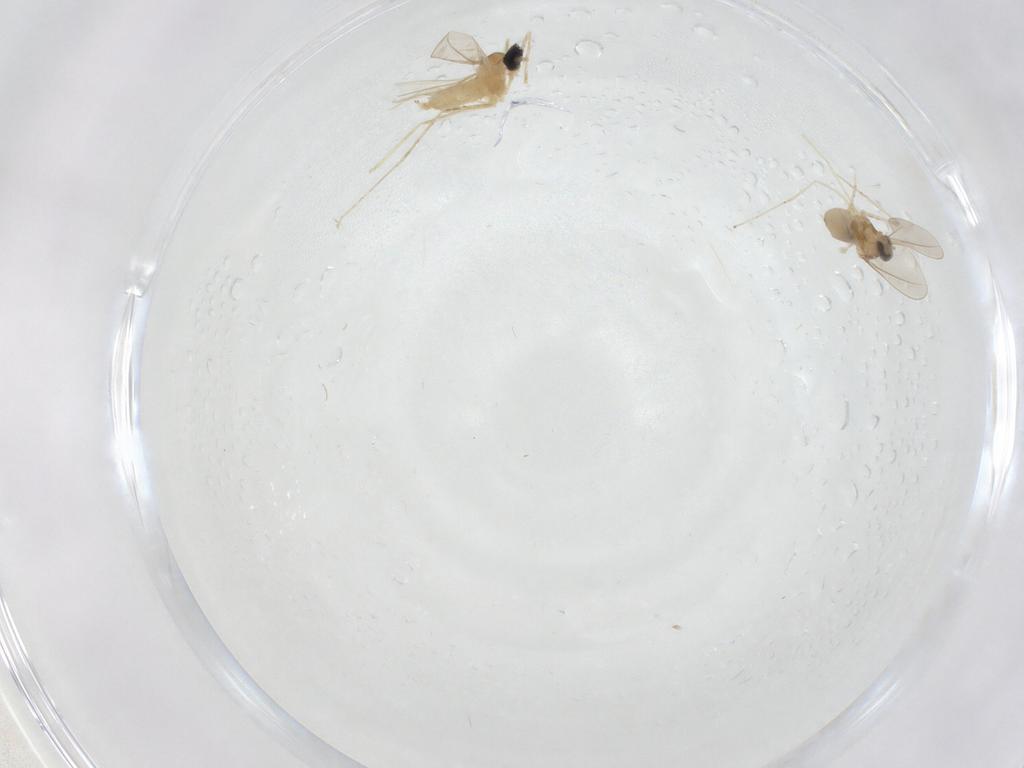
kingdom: Animalia
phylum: Arthropoda
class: Insecta
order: Diptera
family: Cecidomyiidae
